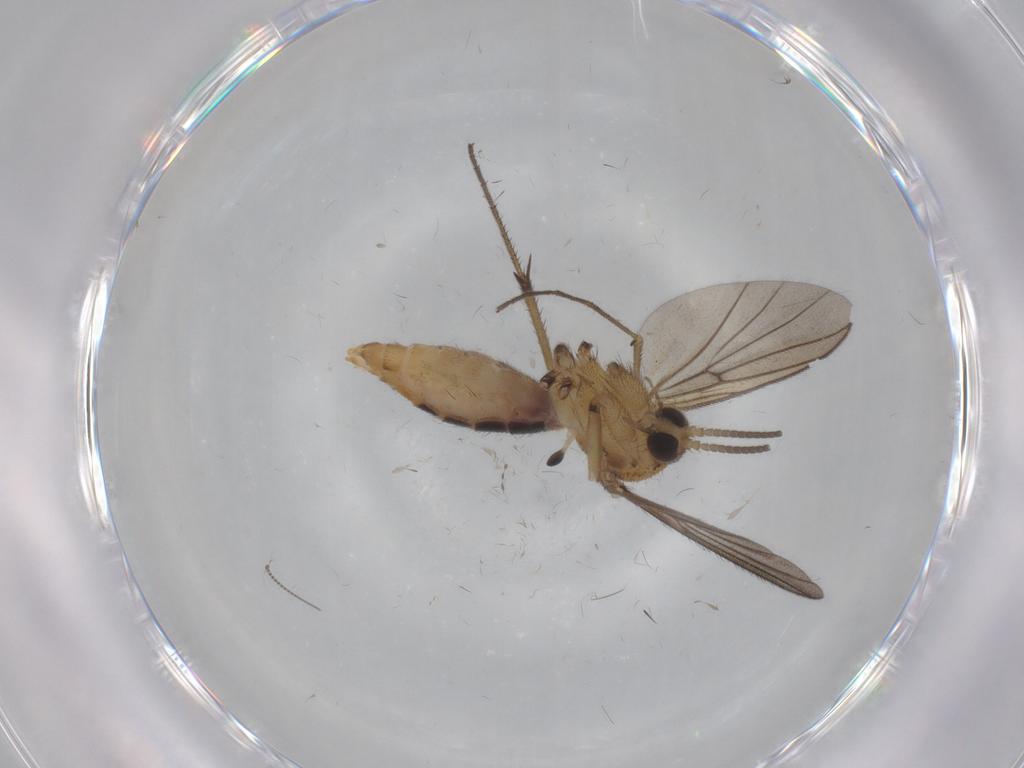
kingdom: Animalia
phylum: Arthropoda
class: Insecta
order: Diptera
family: Mycetophilidae
